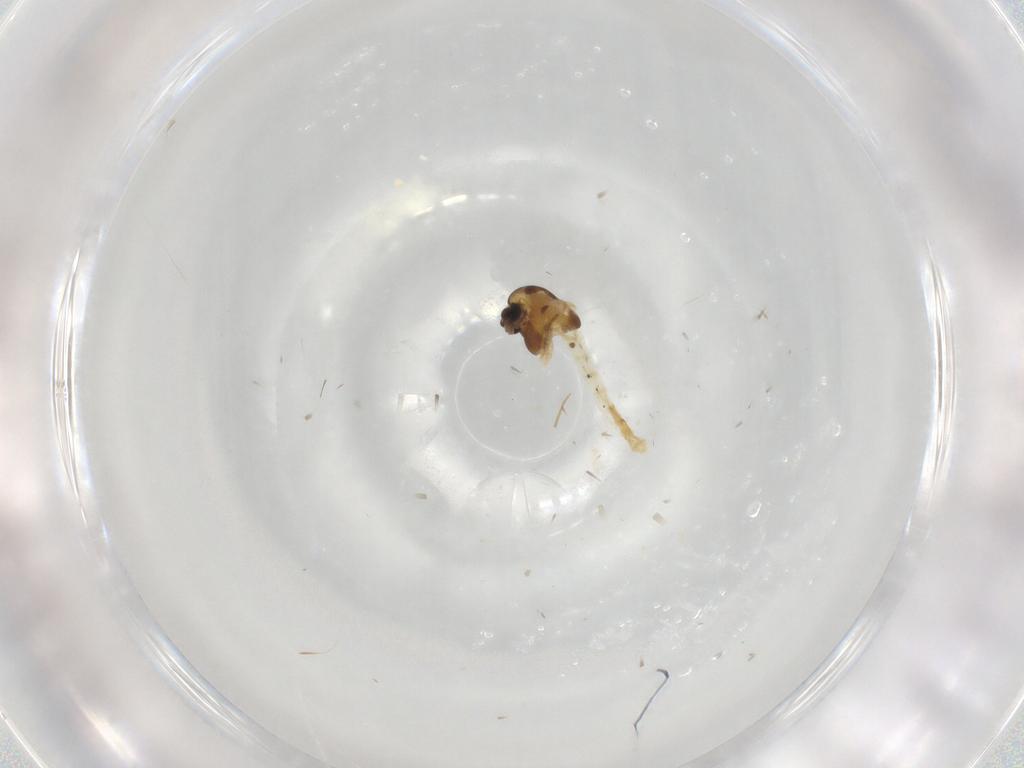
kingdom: Animalia
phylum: Arthropoda
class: Insecta
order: Diptera
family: Chironomidae
